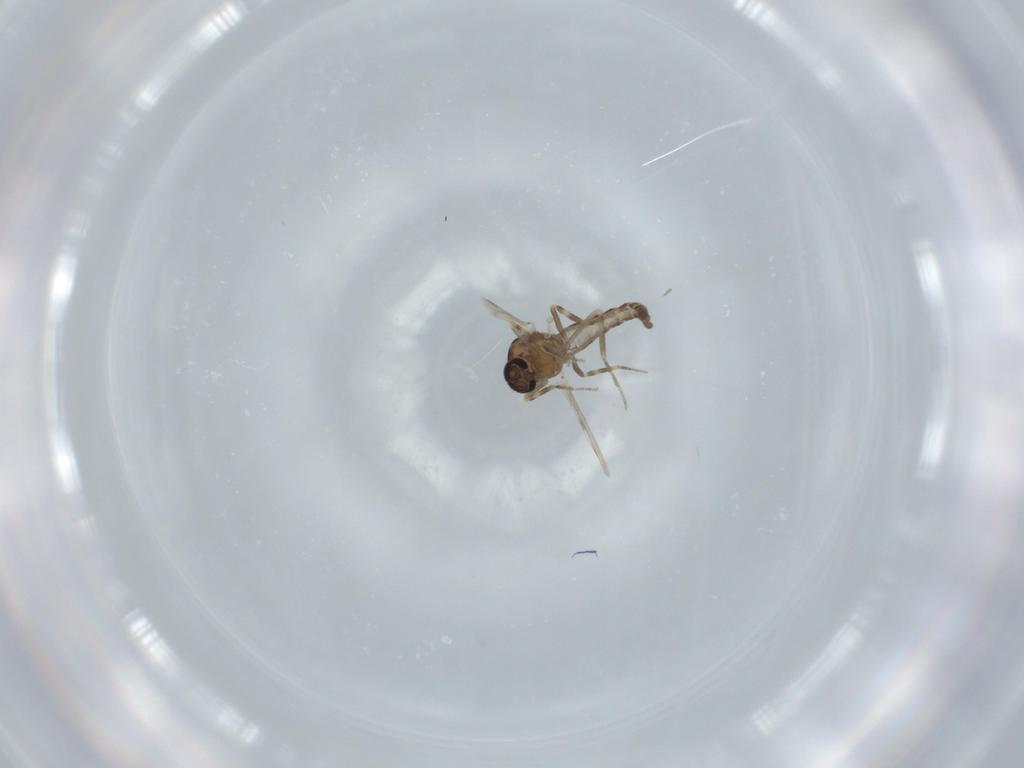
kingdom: Animalia
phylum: Arthropoda
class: Insecta
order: Diptera
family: Ceratopogonidae
